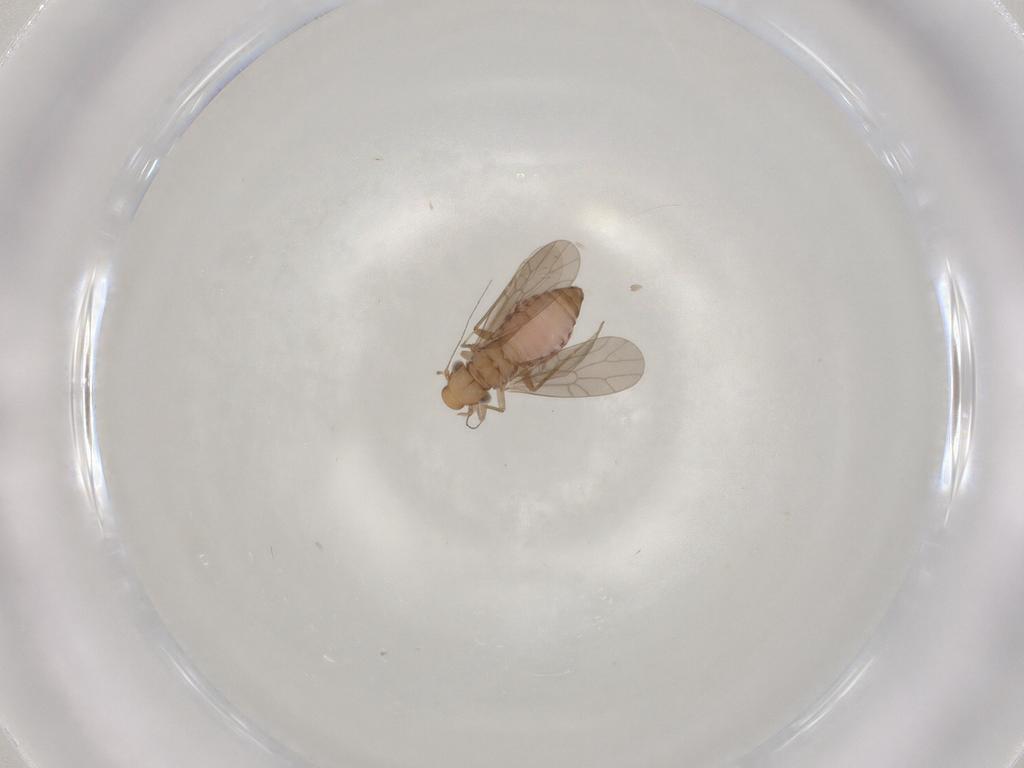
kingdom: Animalia
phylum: Arthropoda
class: Insecta
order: Psocodea
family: Lepidopsocidae
